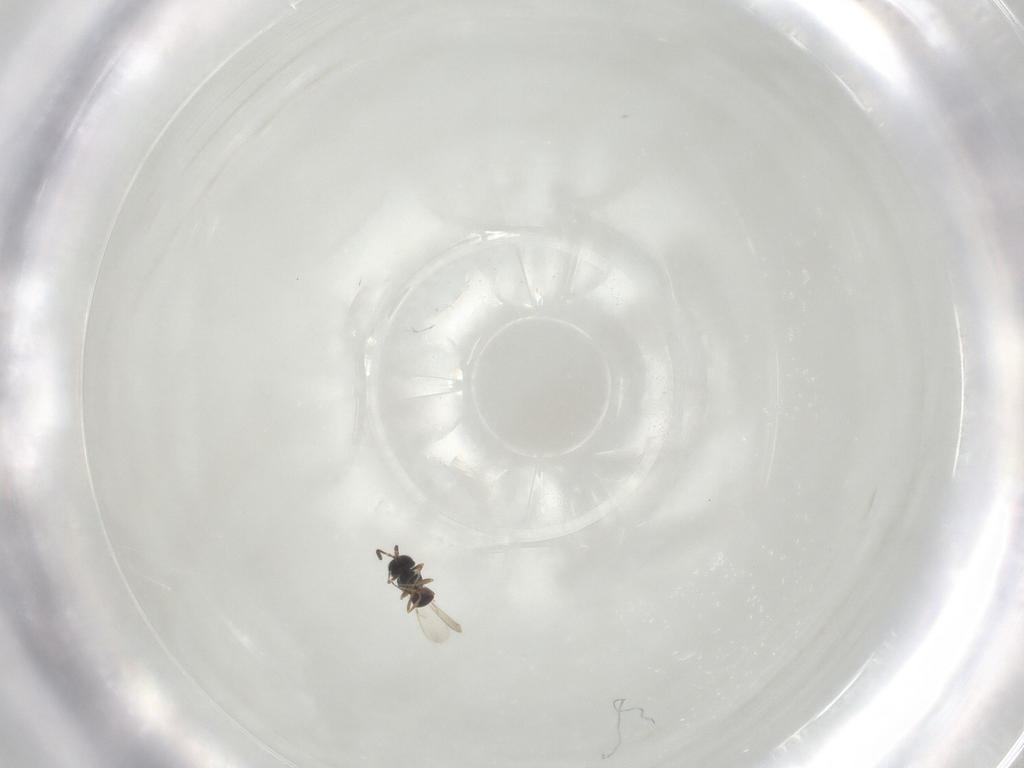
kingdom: Animalia
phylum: Arthropoda
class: Insecta
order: Hymenoptera
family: Scelionidae
